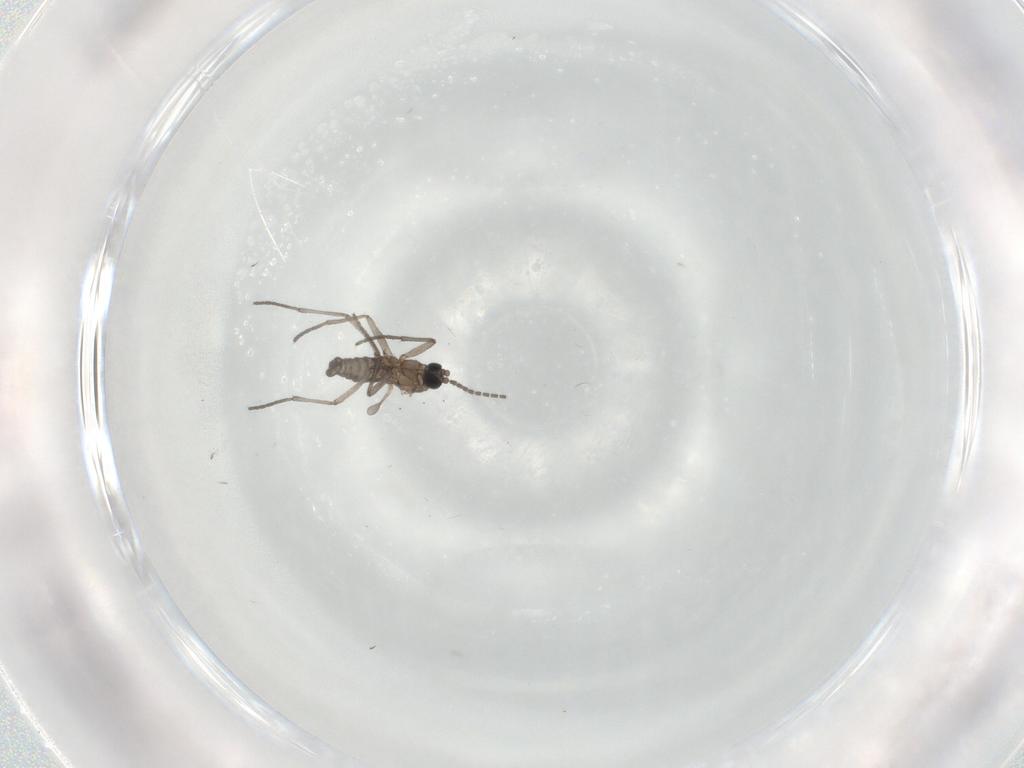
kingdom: Animalia
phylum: Arthropoda
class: Insecta
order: Diptera
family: Sciaridae
